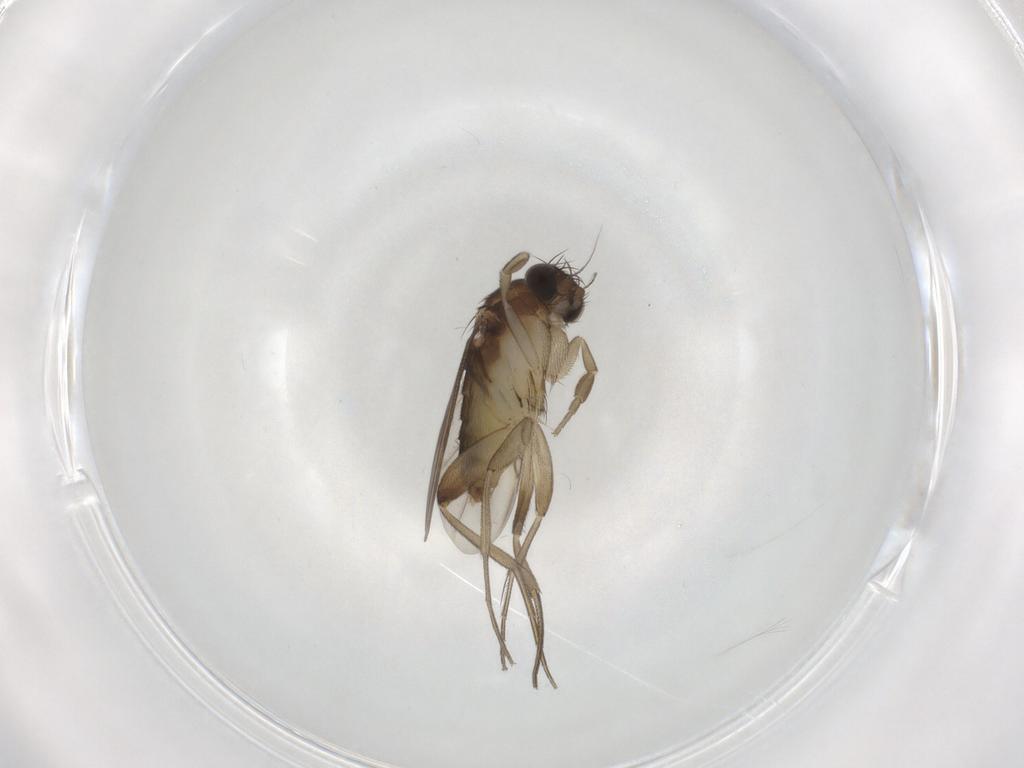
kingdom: Animalia
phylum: Arthropoda
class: Insecta
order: Diptera
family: Phoridae
